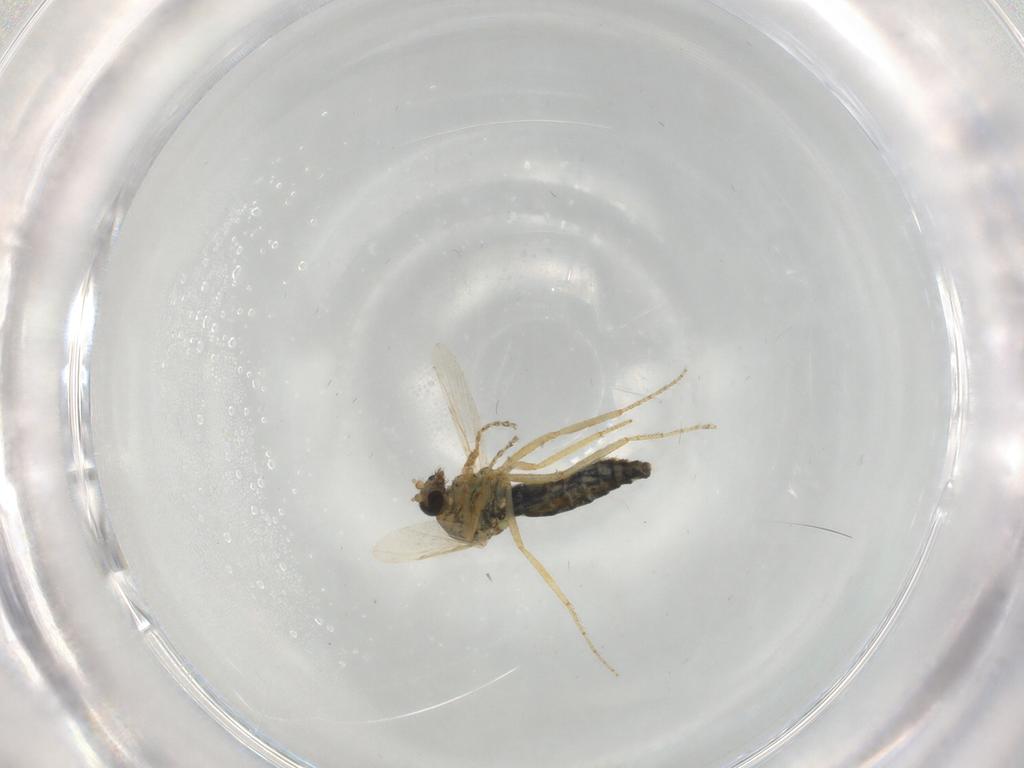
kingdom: Animalia
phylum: Arthropoda
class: Insecta
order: Diptera
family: Ceratopogonidae
